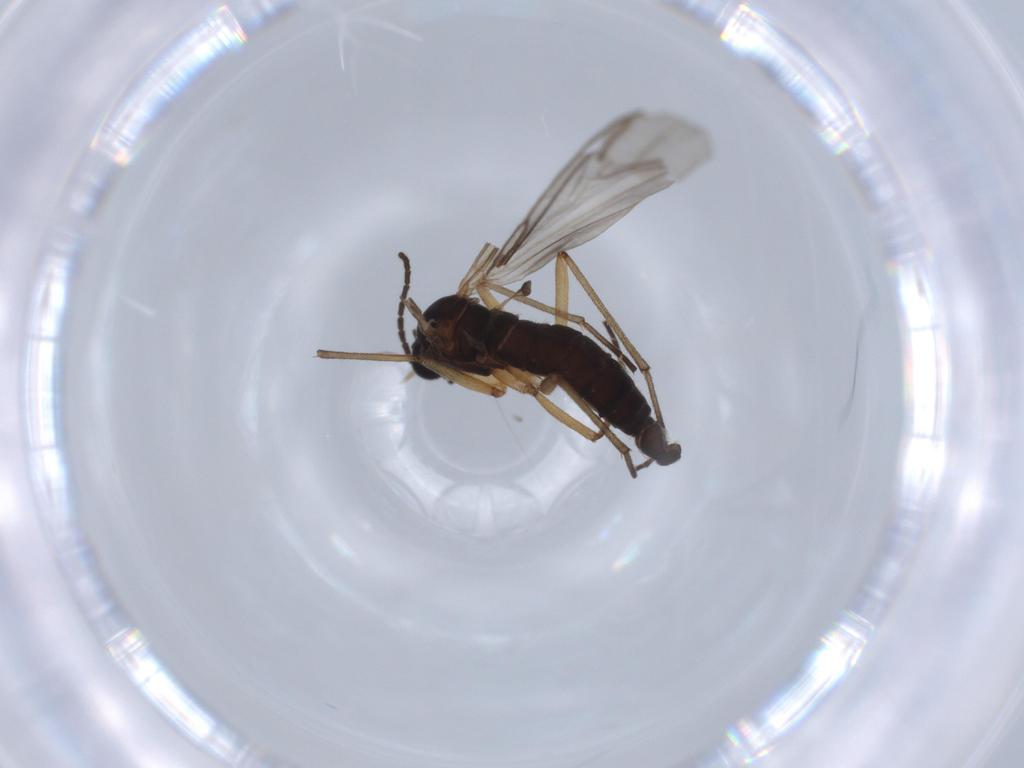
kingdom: Animalia
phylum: Arthropoda
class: Insecta
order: Diptera
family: Sciaridae
